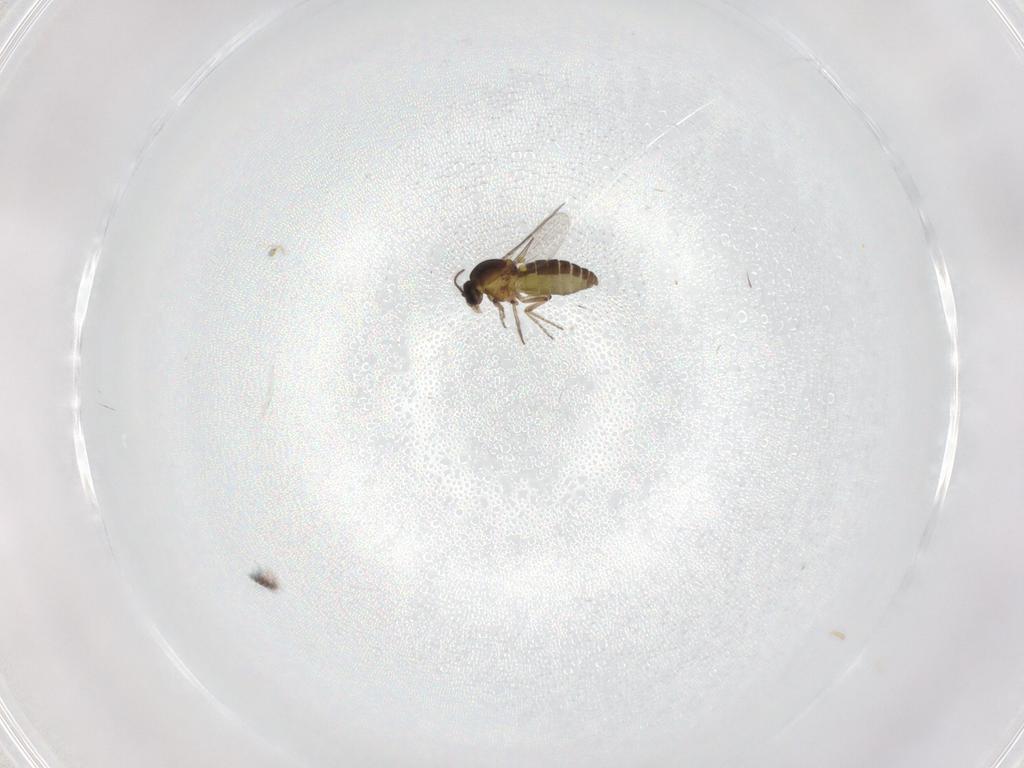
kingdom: Animalia
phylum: Arthropoda
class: Insecta
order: Diptera
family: Ceratopogonidae
